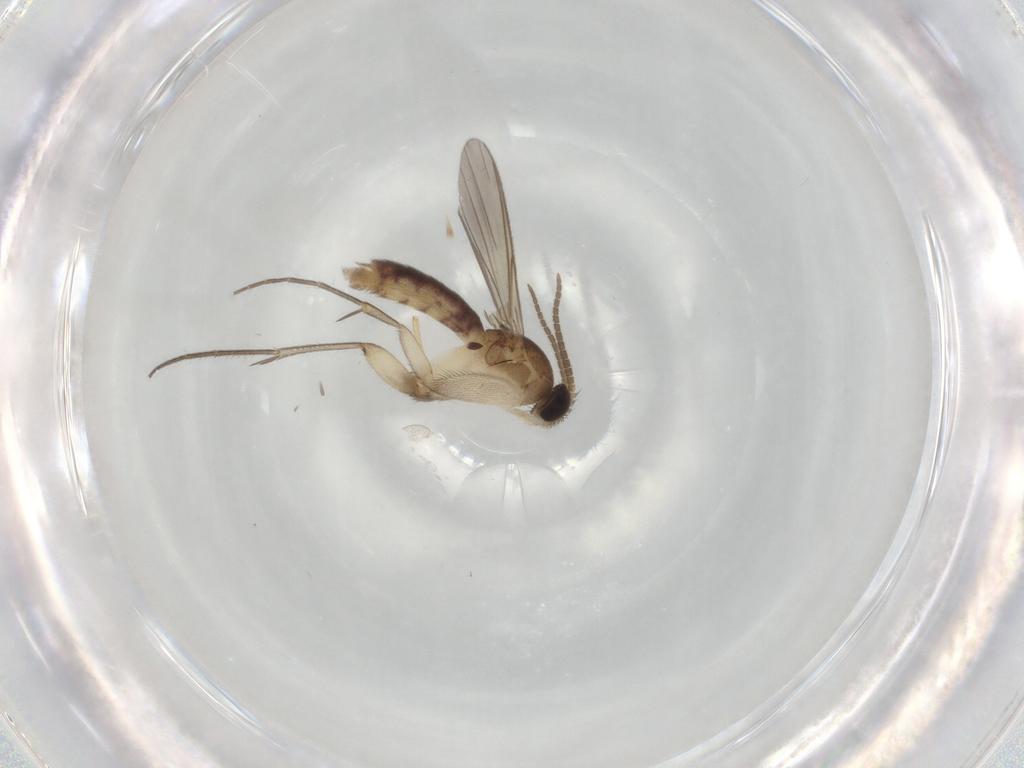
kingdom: Animalia
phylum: Arthropoda
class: Insecta
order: Diptera
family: Mycetophilidae
